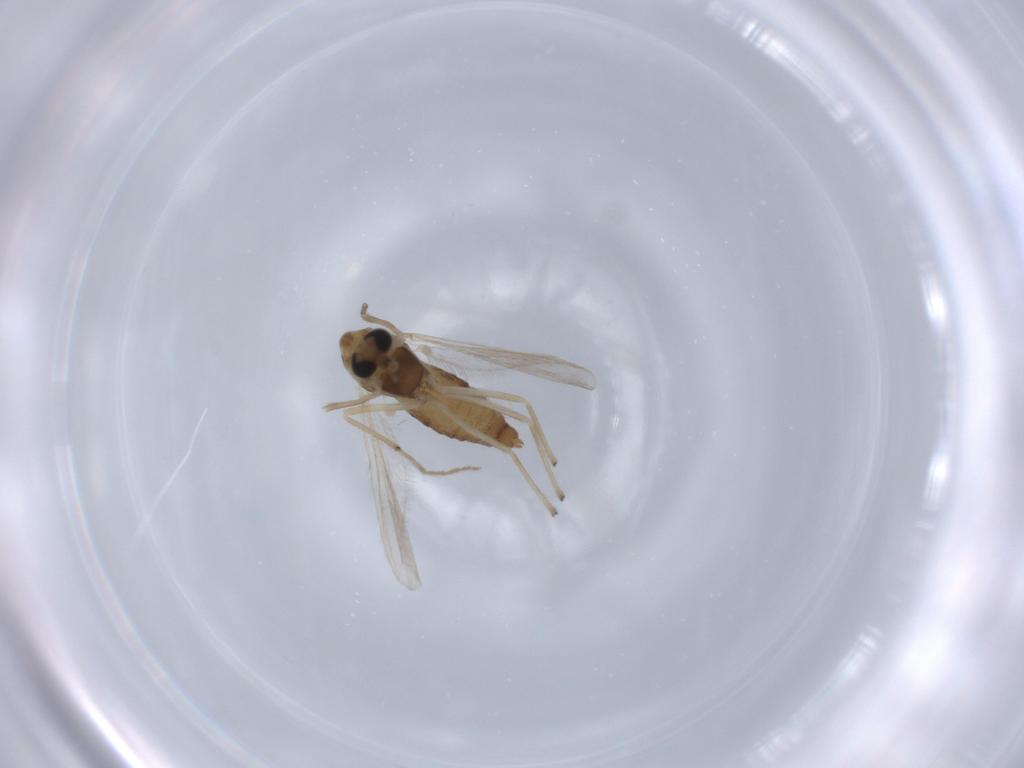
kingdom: Animalia
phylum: Arthropoda
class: Insecta
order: Diptera
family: Chironomidae
